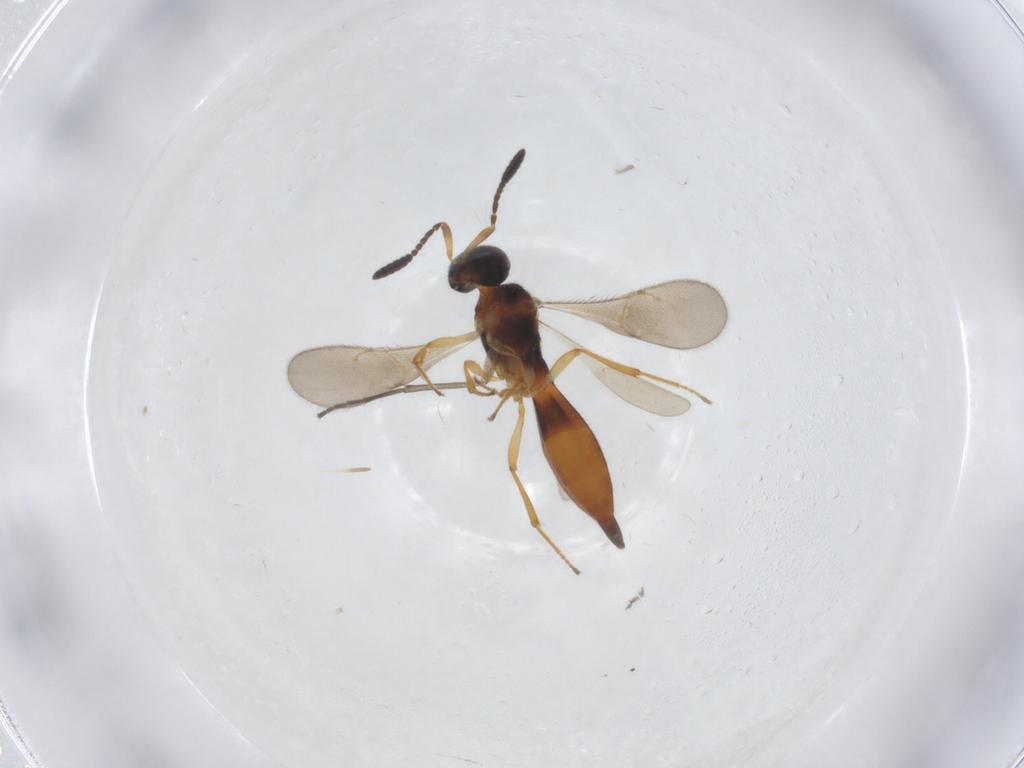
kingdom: Animalia
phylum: Arthropoda
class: Insecta
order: Hymenoptera
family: Scelionidae
